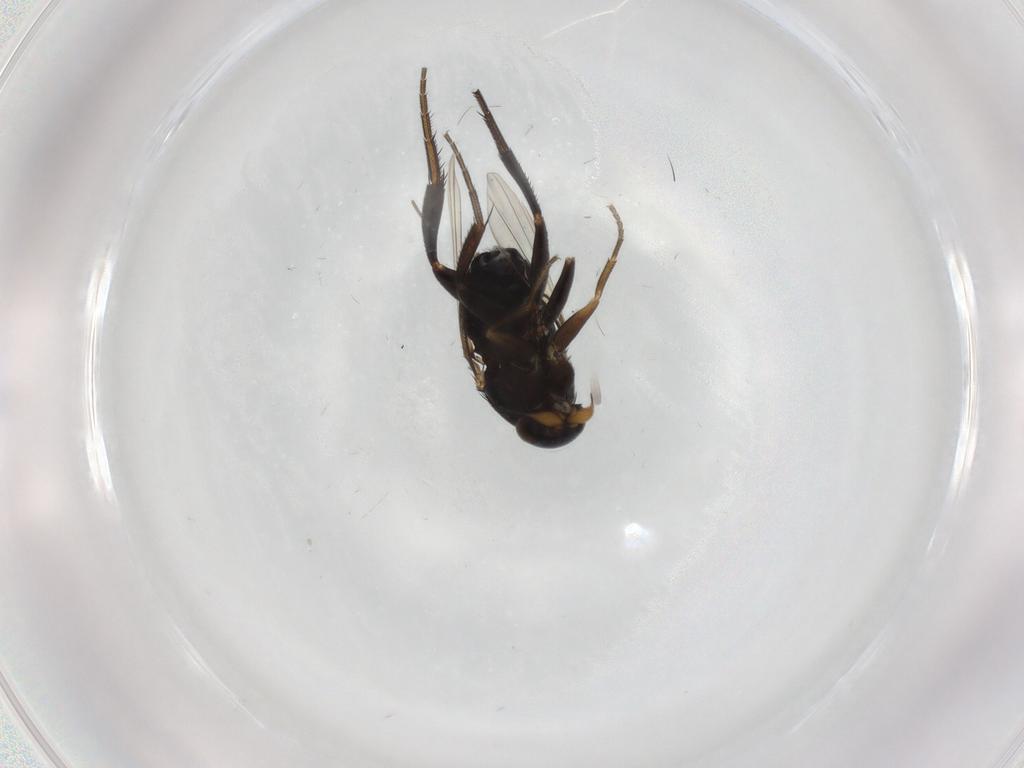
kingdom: Animalia
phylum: Arthropoda
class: Insecta
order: Diptera
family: Phoridae
